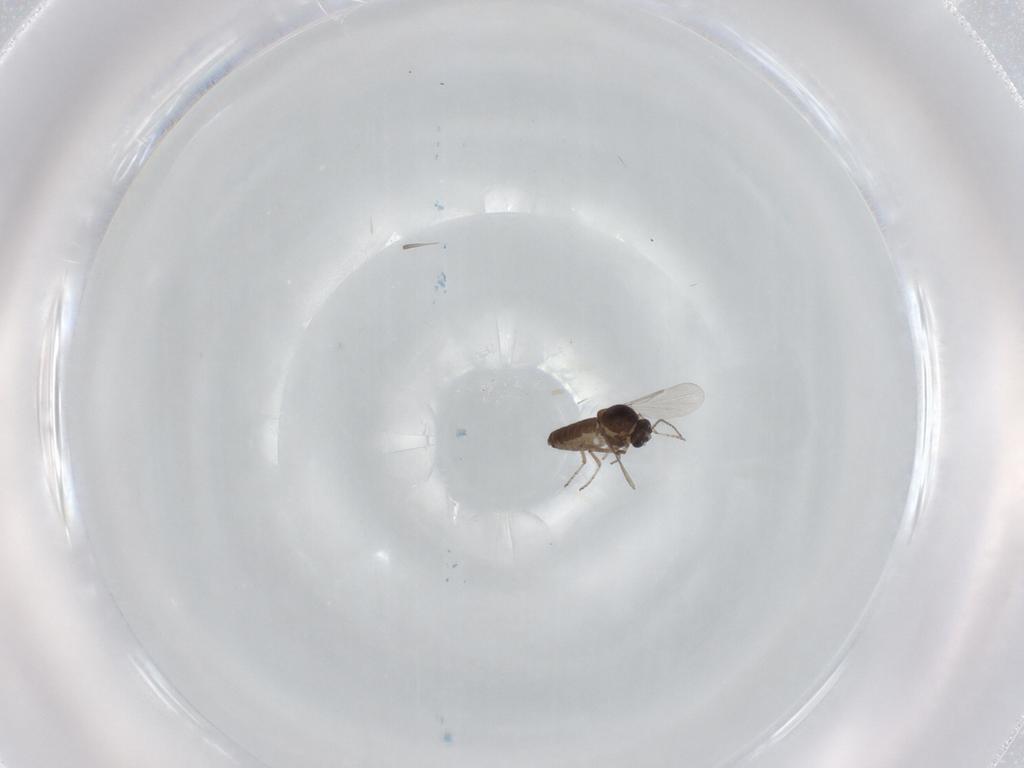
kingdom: Animalia
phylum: Arthropoda
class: Insecta
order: Diptera
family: Ceratopogonidae
